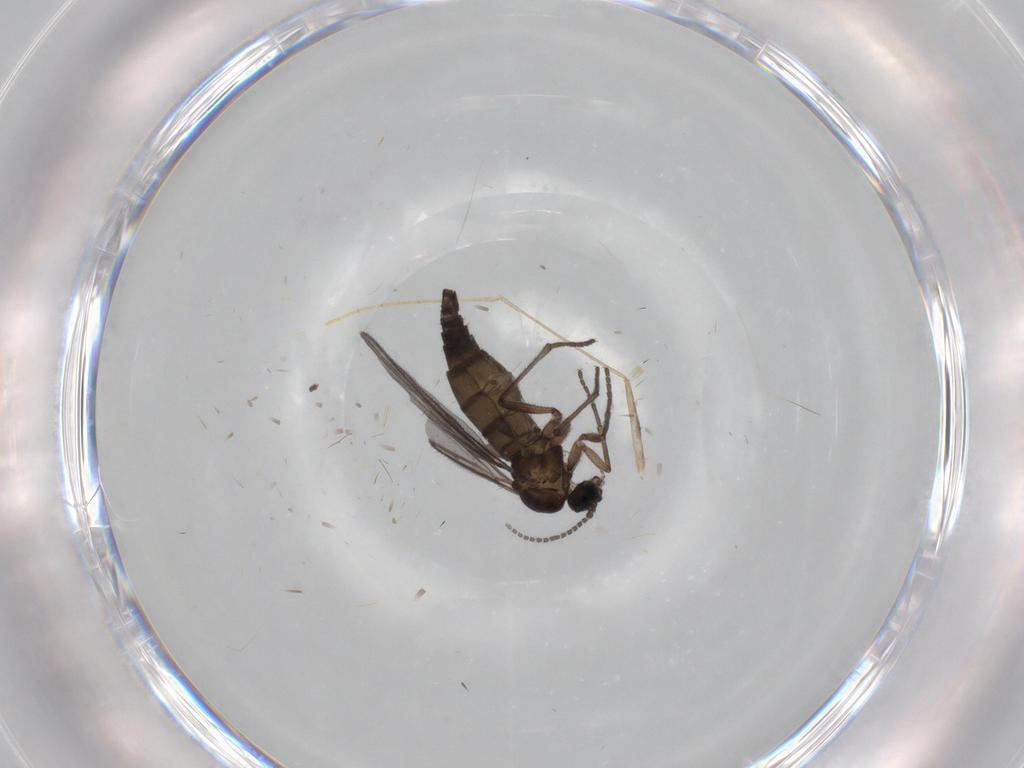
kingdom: Animalia
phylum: Arthropoda
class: Insecta
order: Diptera
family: Sciaridae
